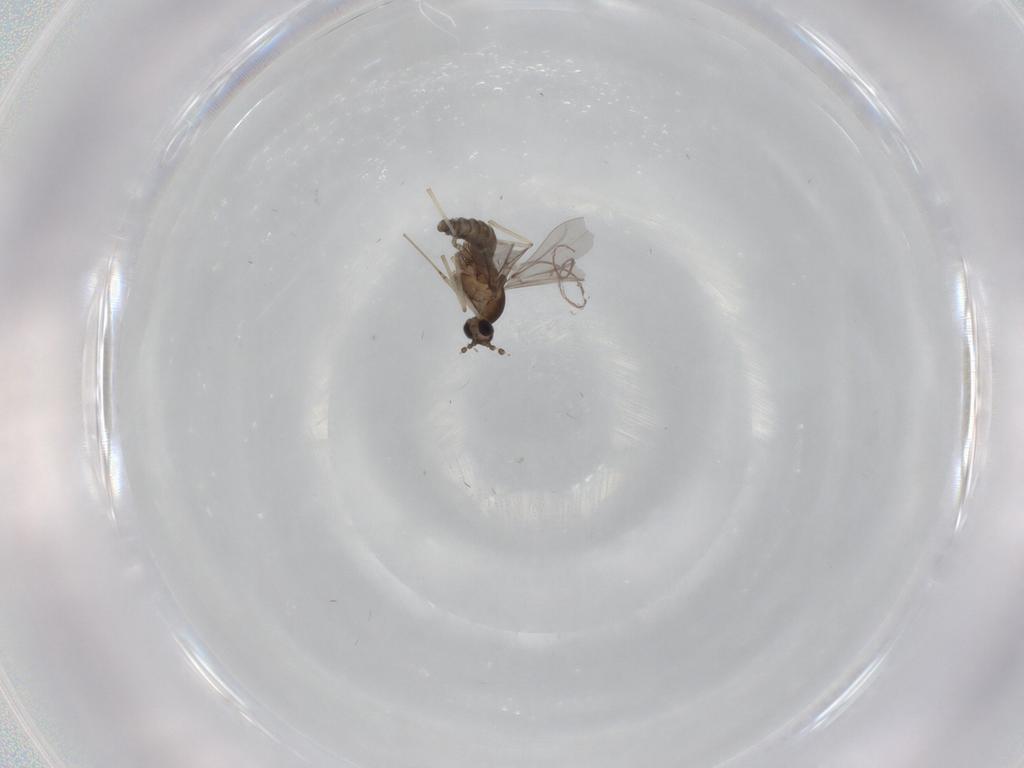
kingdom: Animalia
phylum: Arthropoda
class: Insecta
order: Diptera
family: Cecidomyiidae
